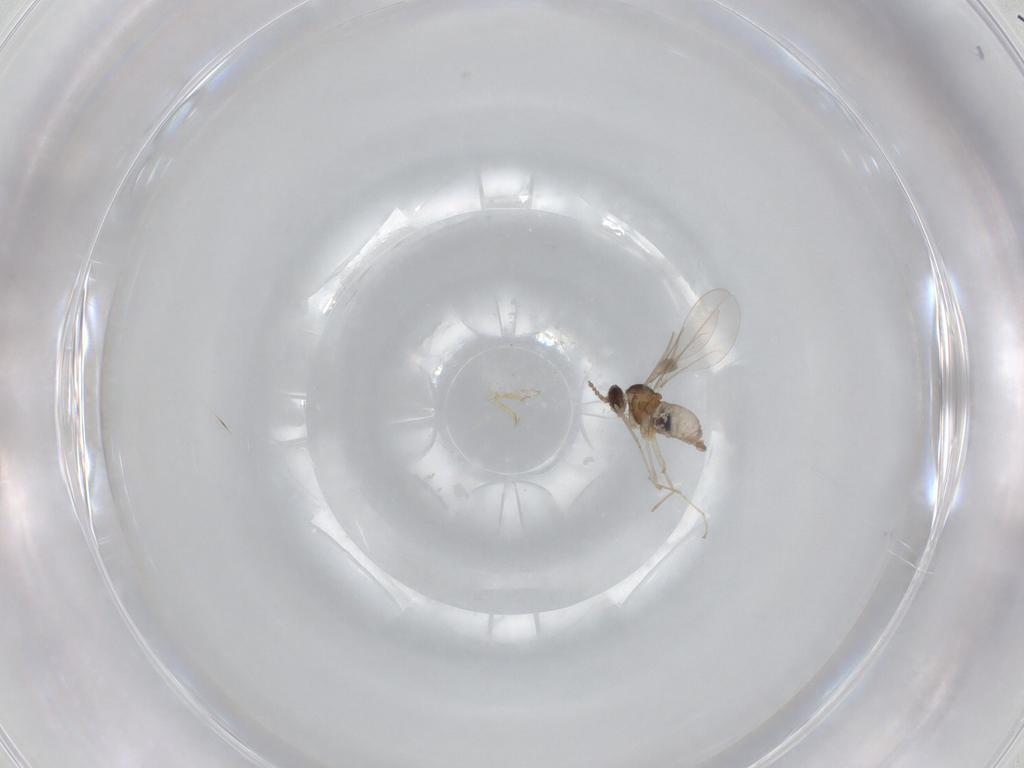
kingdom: Animalia
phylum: Arthropoda
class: Insecta
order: Diptera
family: Cecidomyiidae
